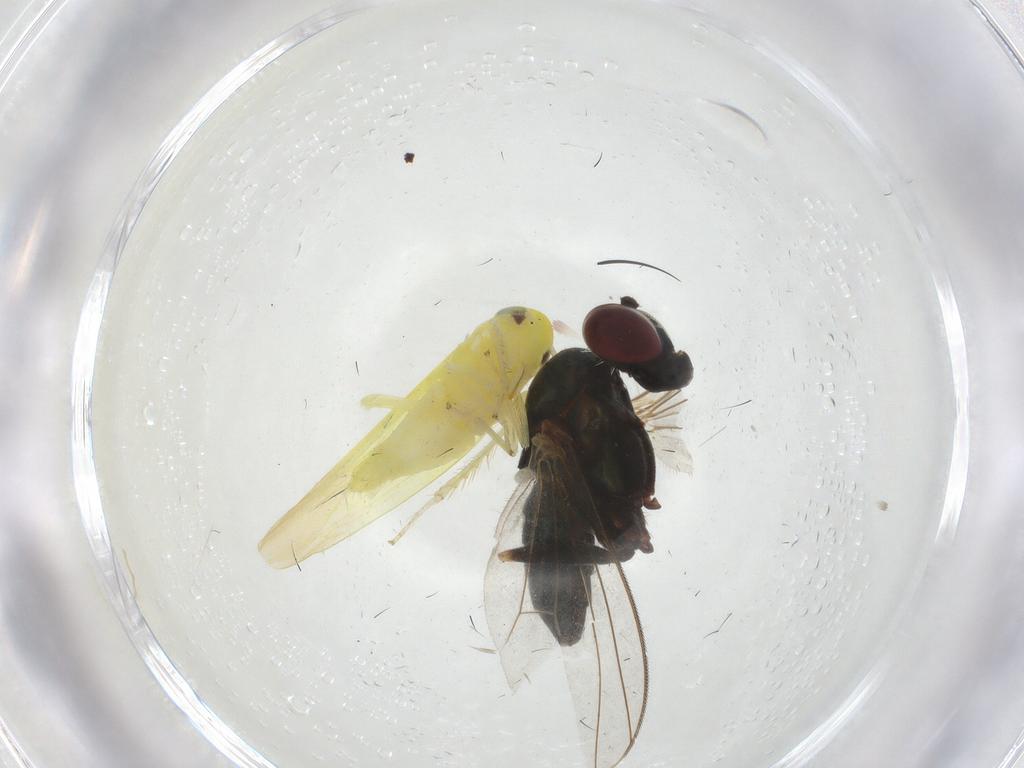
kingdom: Animalia
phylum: Arthropoda
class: Insecta
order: Diptera
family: Dolichopodidae
